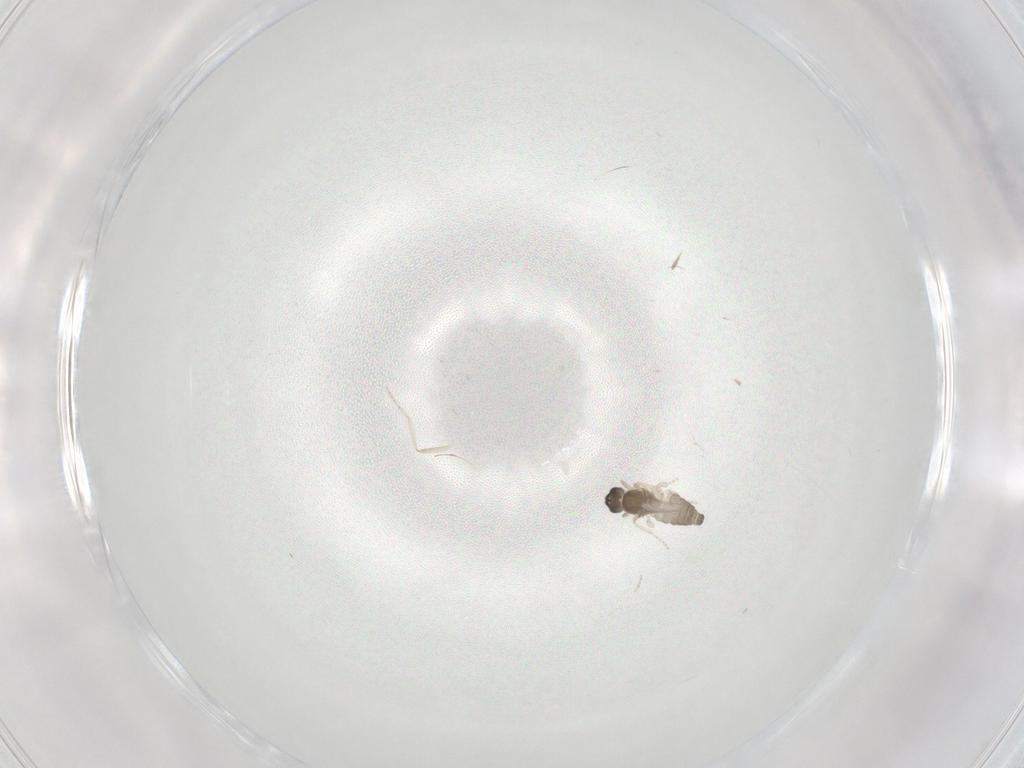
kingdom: Animalia
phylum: Arthropoda
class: Insecta
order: Diptera
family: Cecidomyiidae
